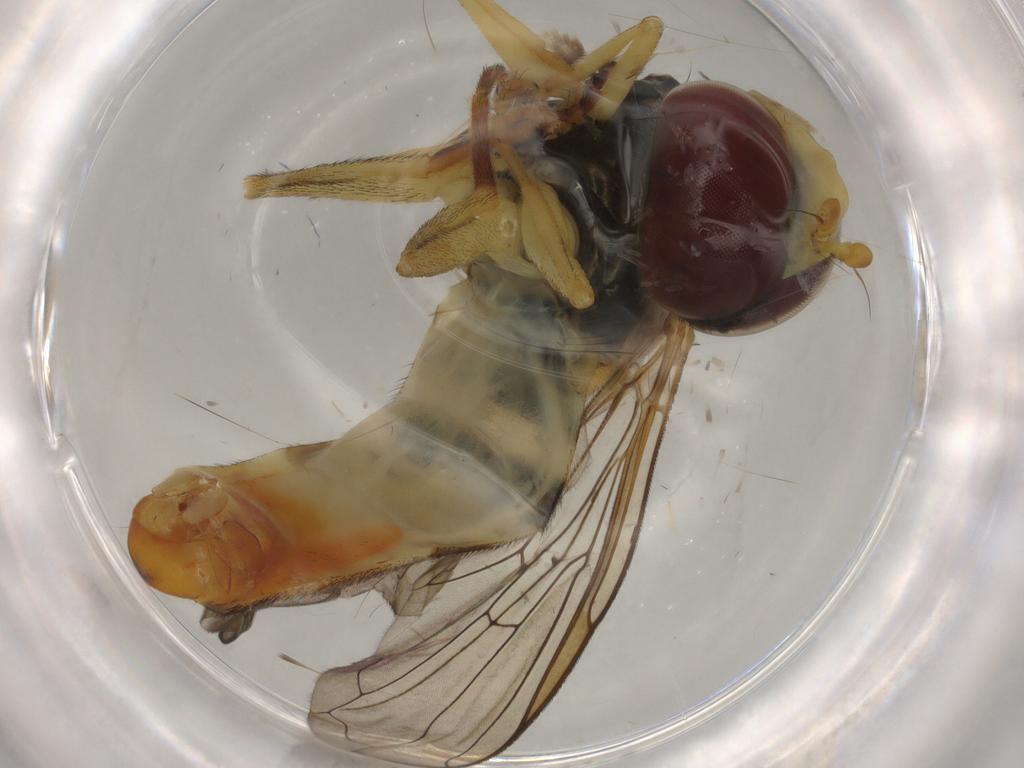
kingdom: Animalia
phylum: Arthropoda
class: Insecta
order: Diptera
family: Syrphidae
